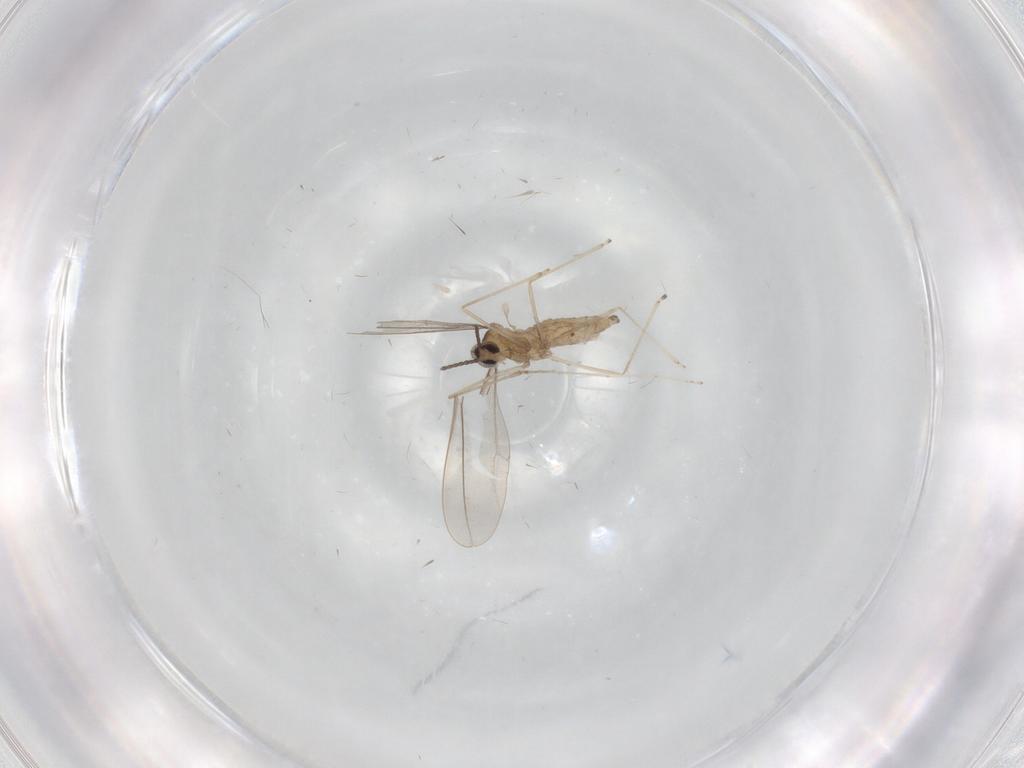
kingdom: Animalia
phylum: Arthropoda
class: Insecta
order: Diptera
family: Cecidomyiidae
